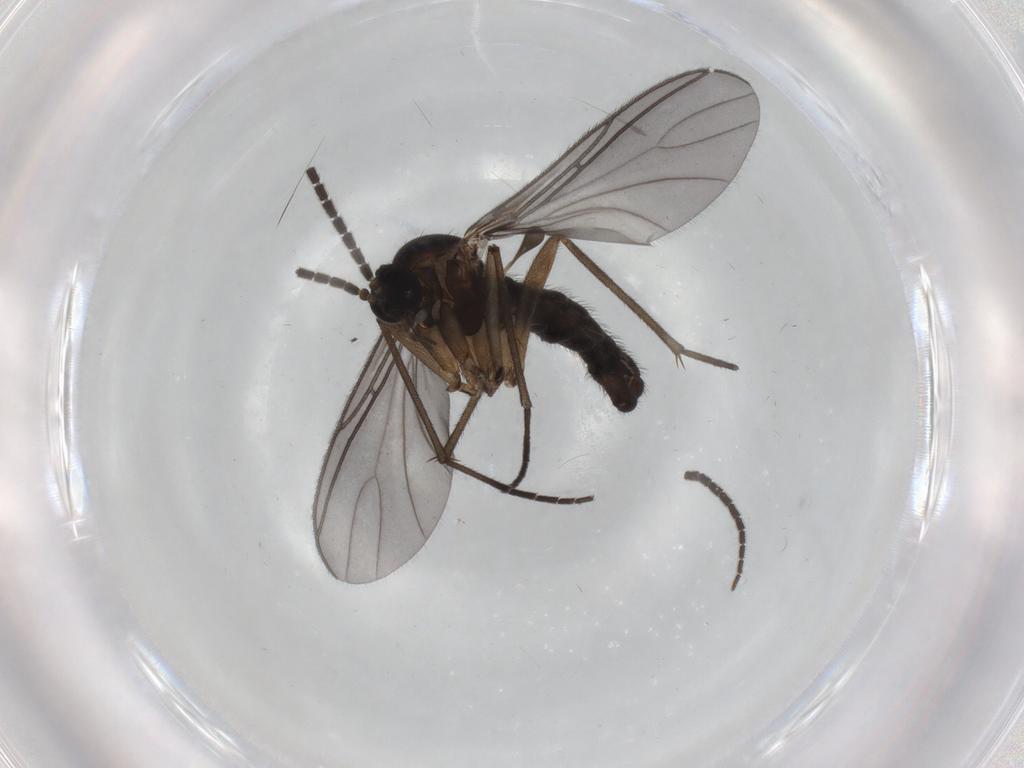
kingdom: Animalia
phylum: Arthropoda
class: Insecta
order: Diptera
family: Sciaridae
